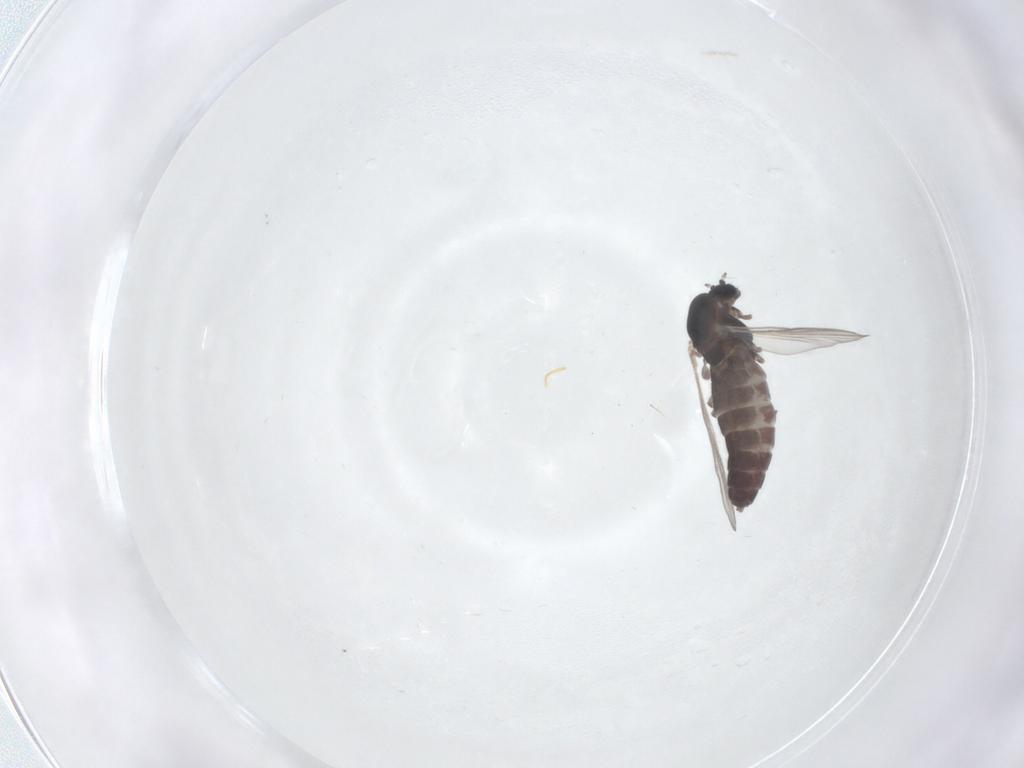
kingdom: Animalia
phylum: Arthropoda
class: Insecta
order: Diptera
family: Chironomidae
